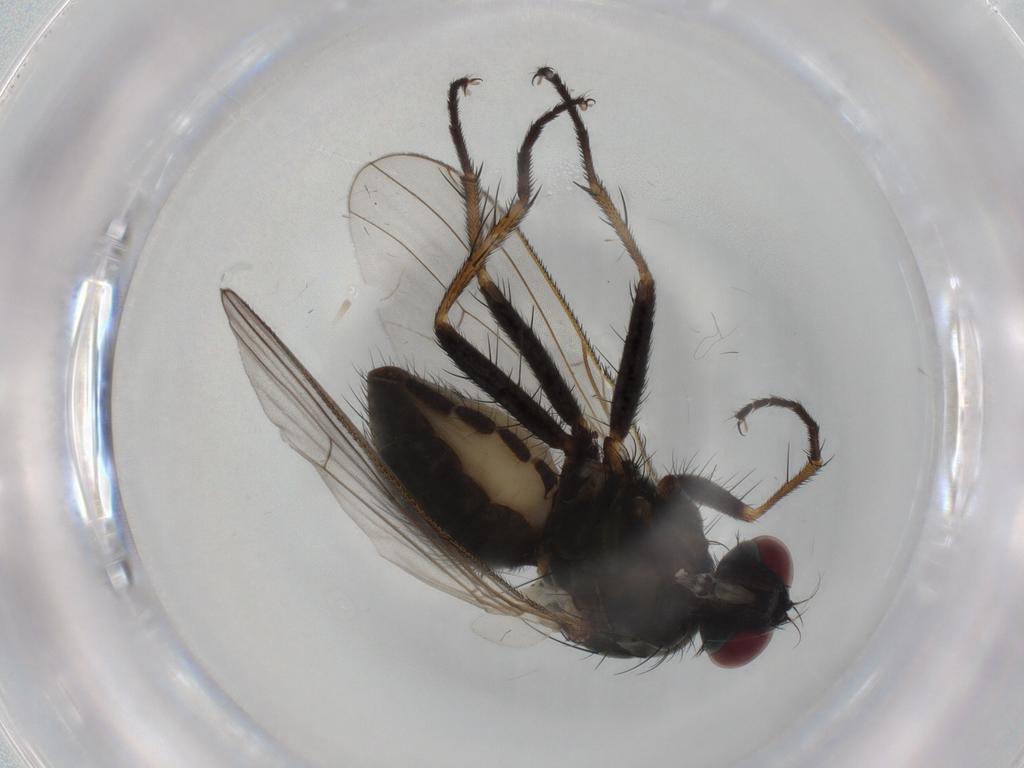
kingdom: Animalia
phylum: Arthropoda
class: Insecta
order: Diptera
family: Sciaridae
